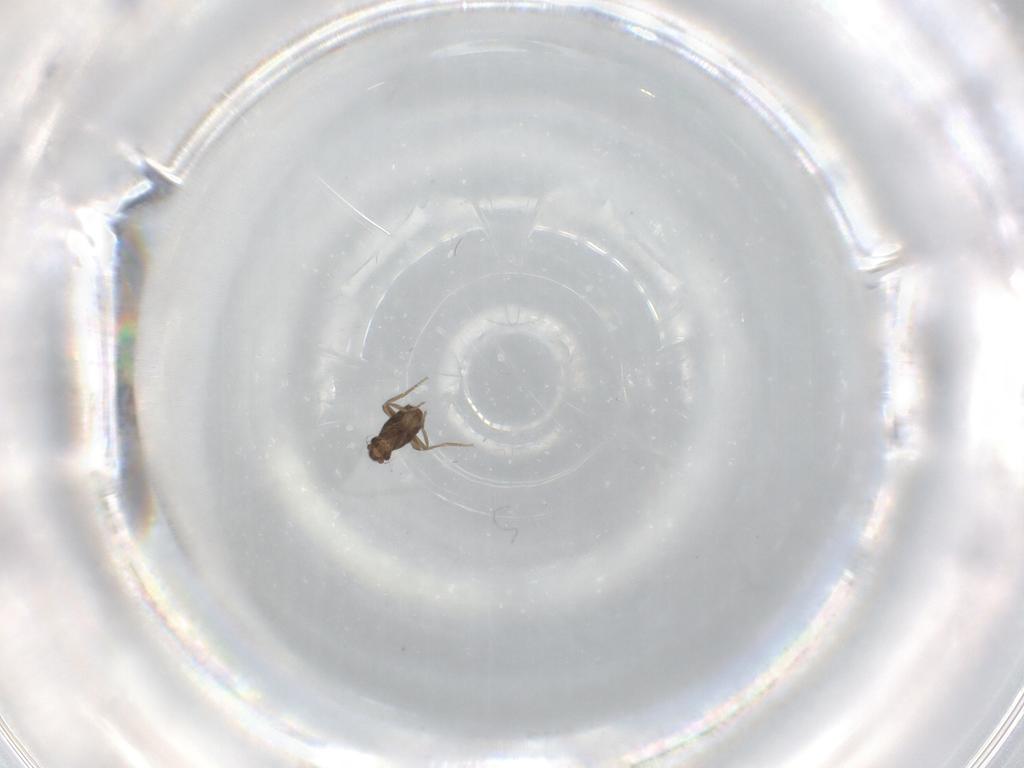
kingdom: Animalia
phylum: Arthropoda
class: Insecta
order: Diptera
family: Phoridae
